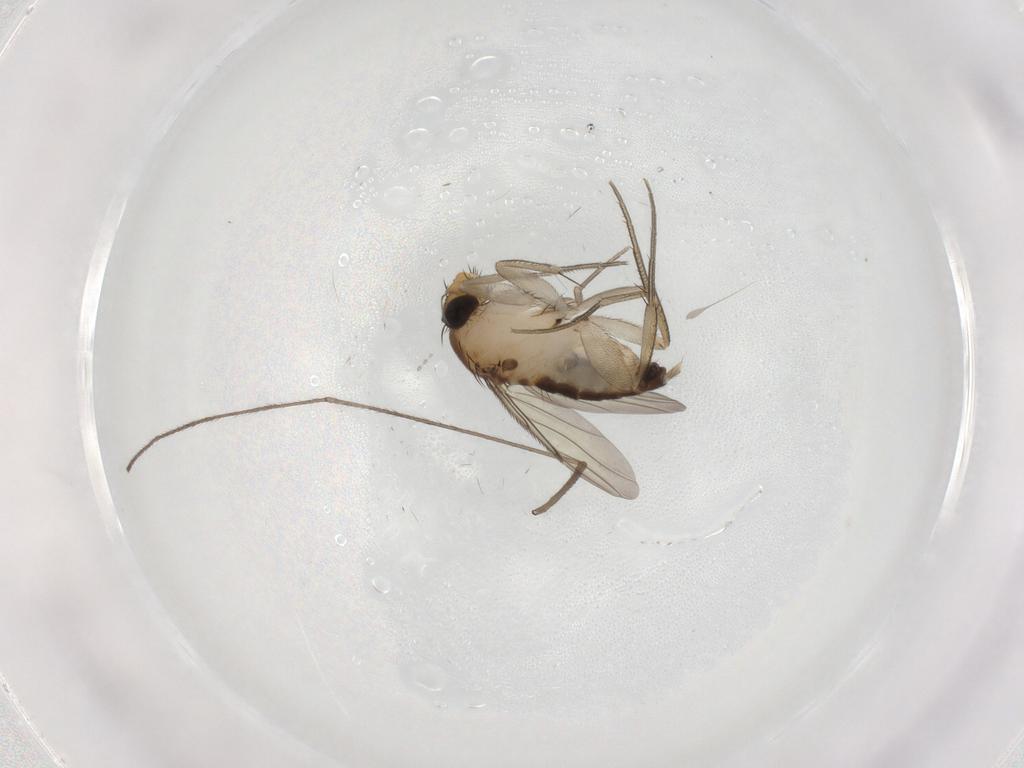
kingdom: Animalia
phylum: Arthropoda
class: Insecta
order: Diptera
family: Phoridae
